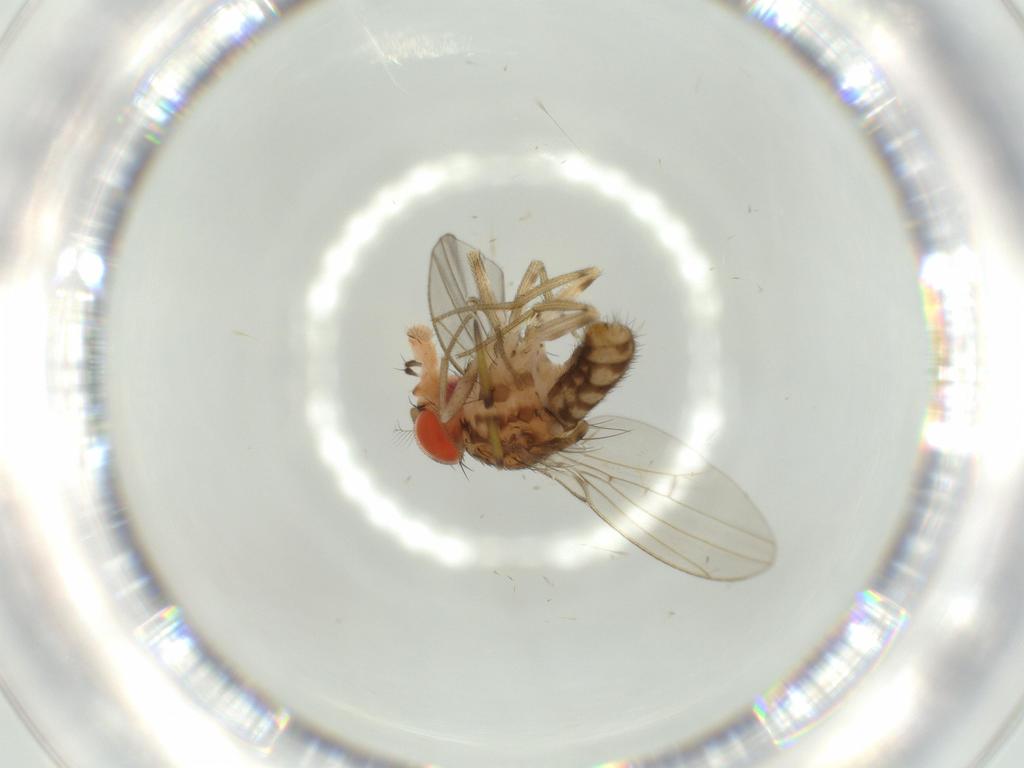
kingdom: Animalia
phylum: Arthropoda
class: Insecta
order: Diptera
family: Drosophilidae
